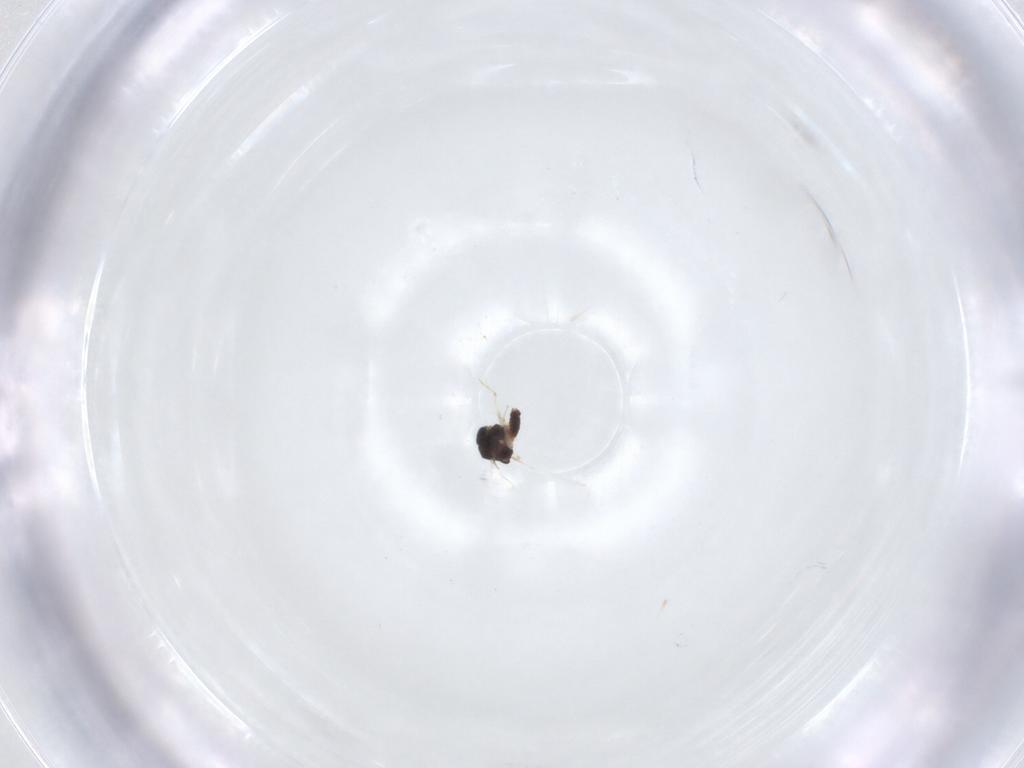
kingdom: Animalia
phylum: Arthropoda
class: Insecta
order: Diptera
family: Chironomidae
